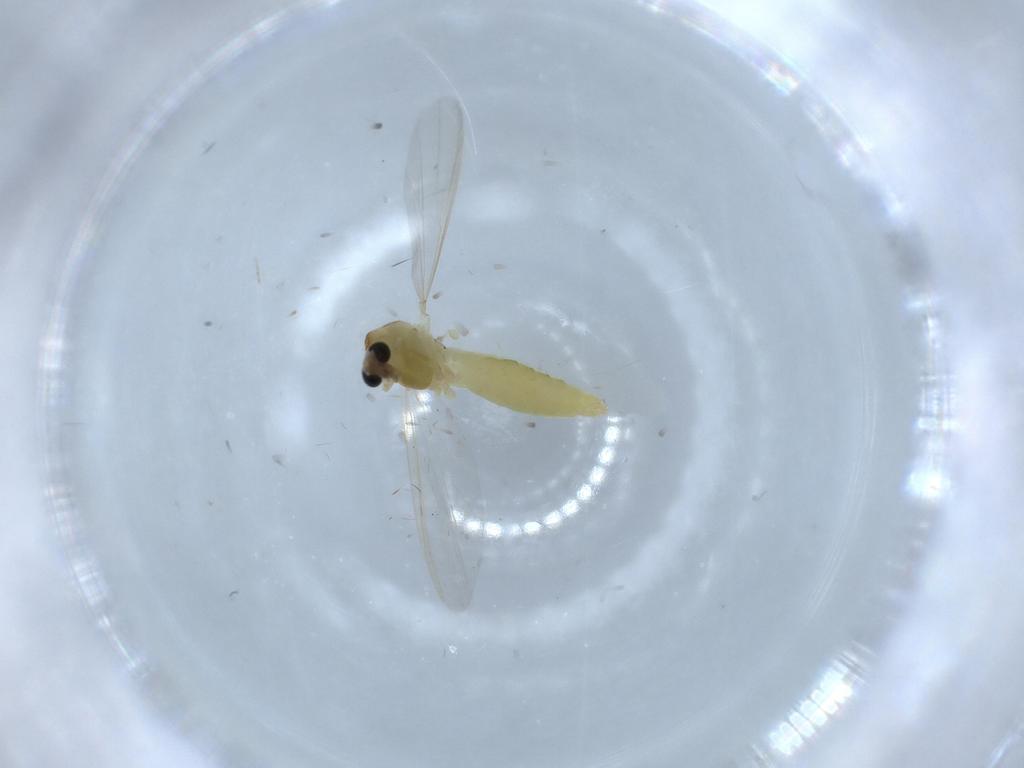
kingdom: Animalia
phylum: Arthropoda
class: Insecta
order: Diptera
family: Chironomidae
